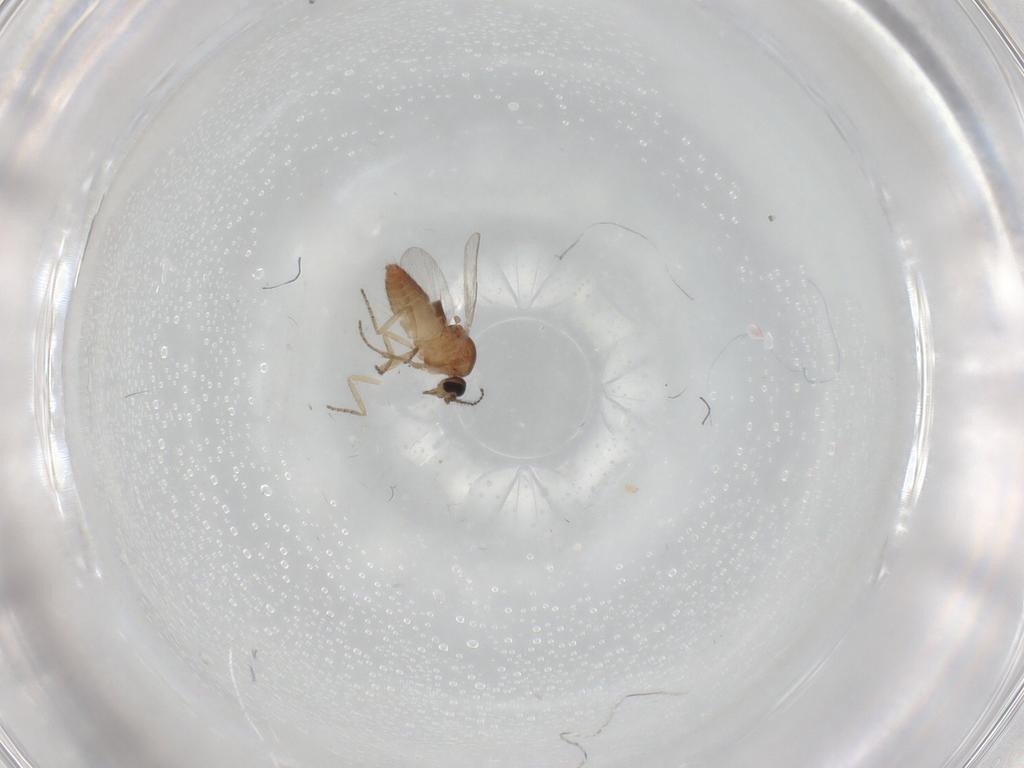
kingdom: Animalia
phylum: Arthropoda
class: Insecta
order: Diptera
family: Ceratopogonidae
